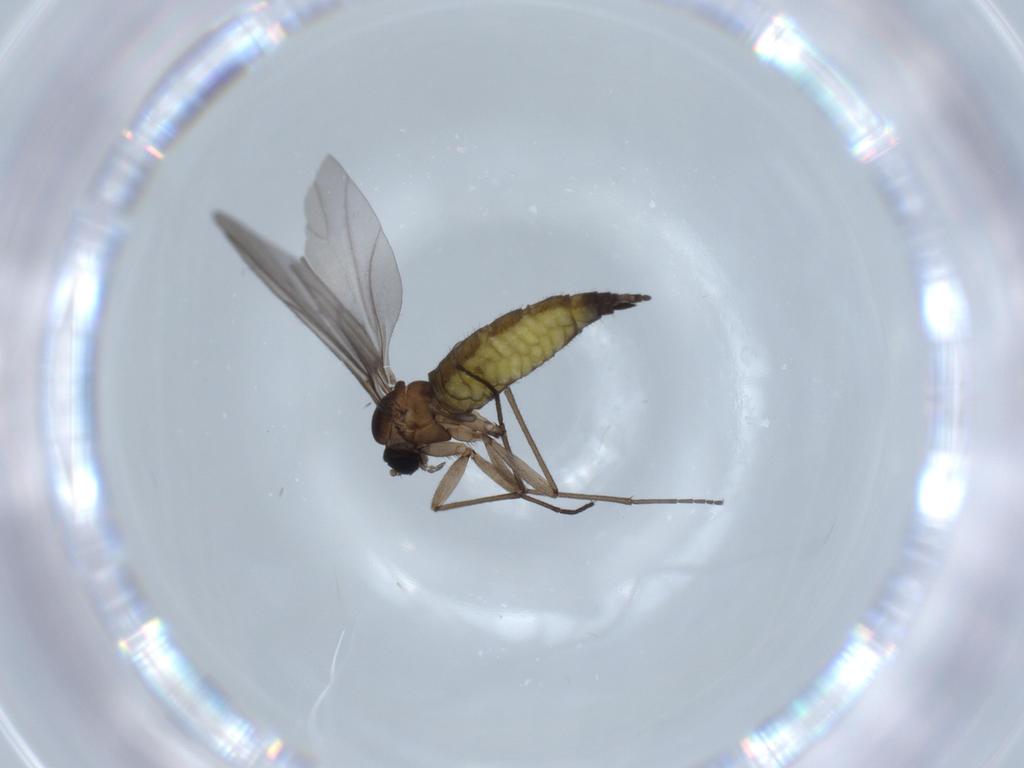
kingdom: Animalia
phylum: Arthropoda
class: Insecta
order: Diptera
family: Sciaridae
